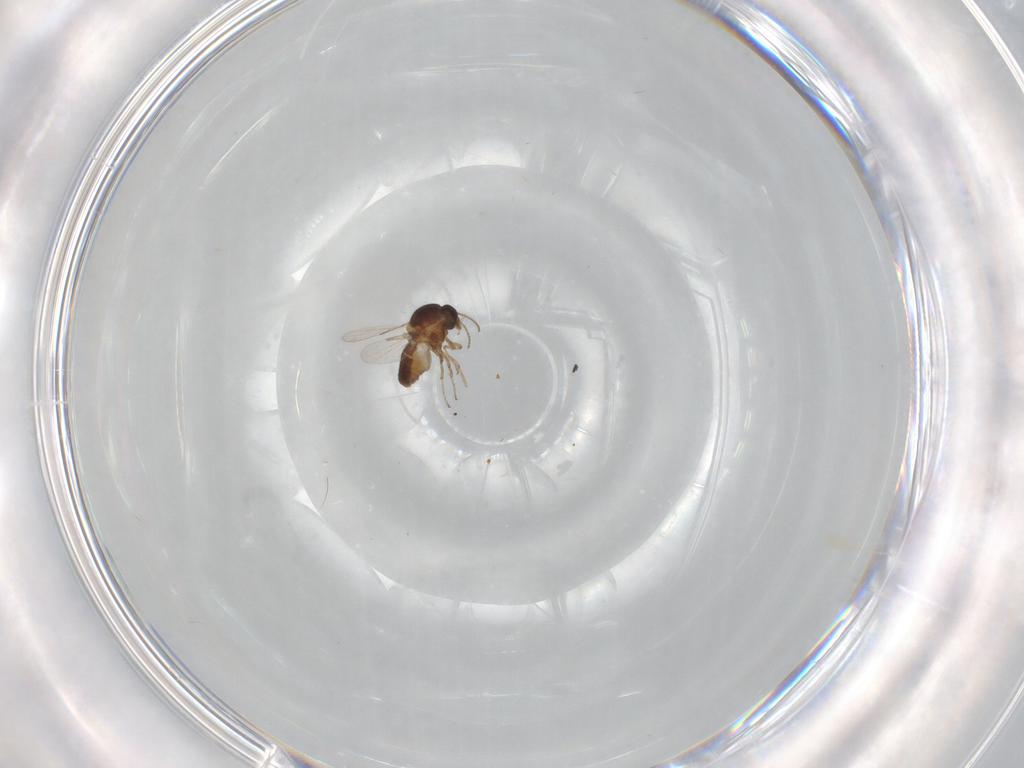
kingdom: Animalia
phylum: Arthropoda
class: Insecta
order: Diptera
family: Ceratopogonidae
